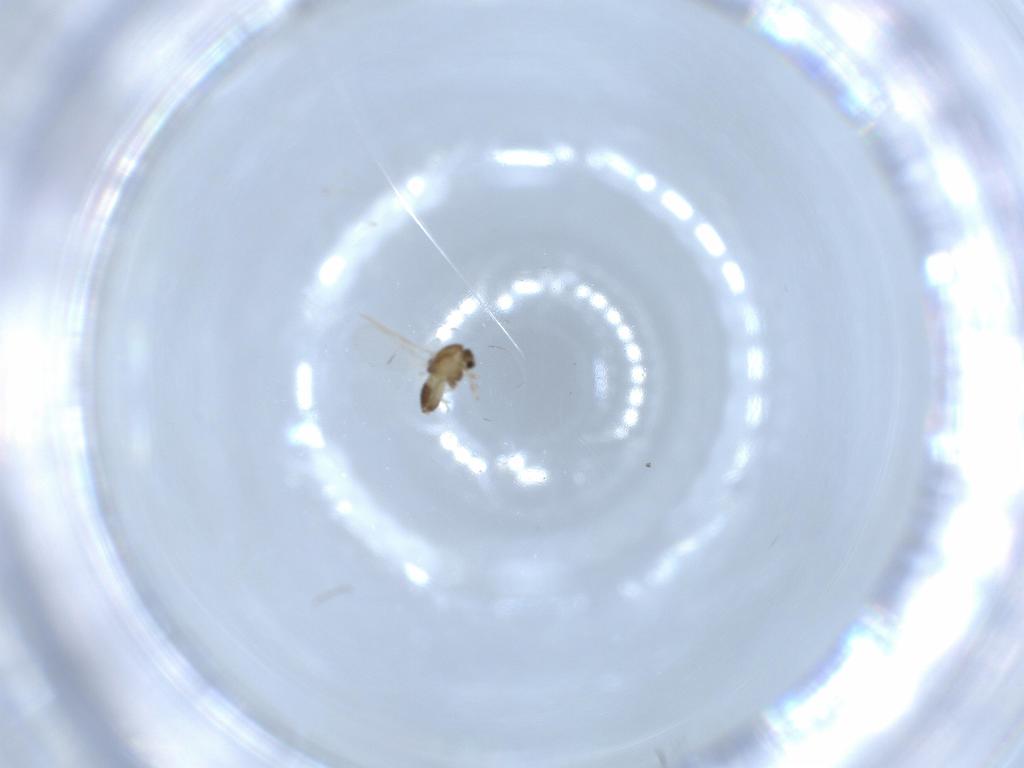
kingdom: Animalia
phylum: Arthropoda
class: Insecta
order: Diptera
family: Chironomidae
